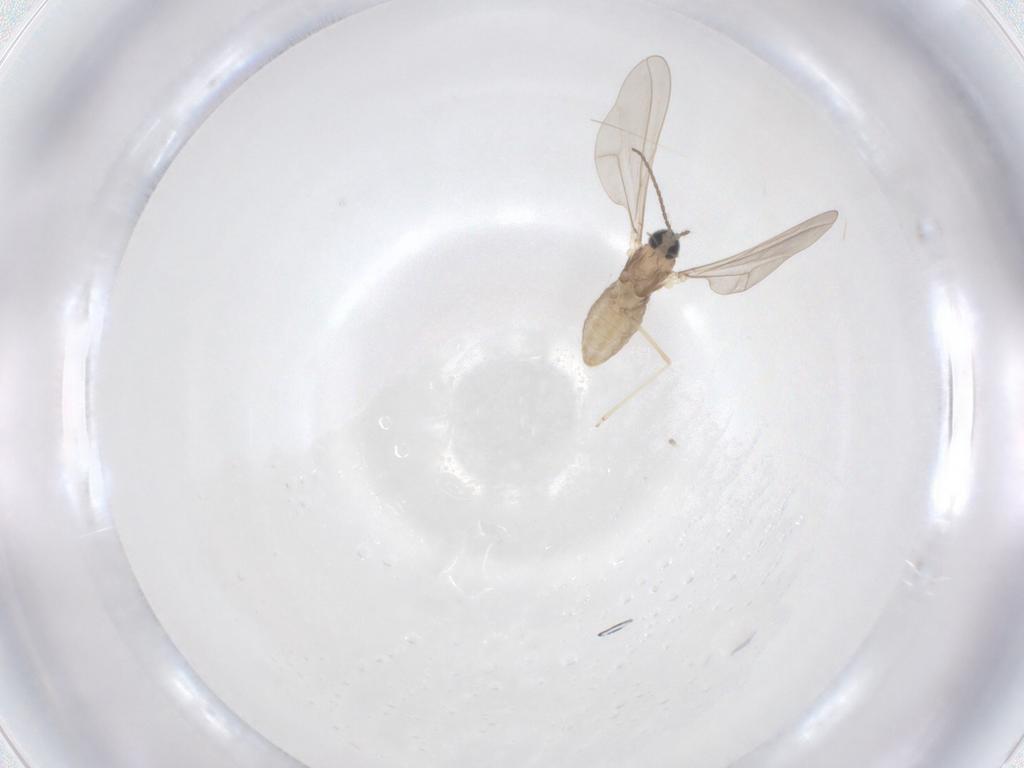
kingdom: Animalia
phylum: Arthropoda
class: Insecta
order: Diptera
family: Cecidomyiidae
